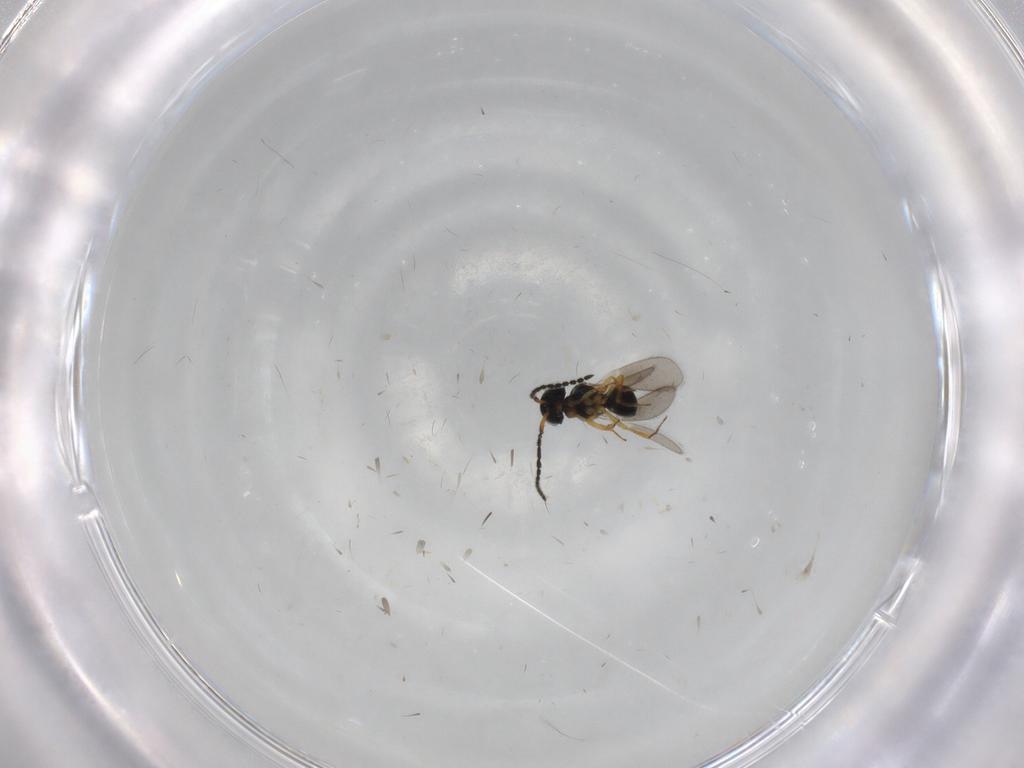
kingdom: Animalia
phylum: Arthropoda
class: Insecta
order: Hymenoptera
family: Scelionidae
